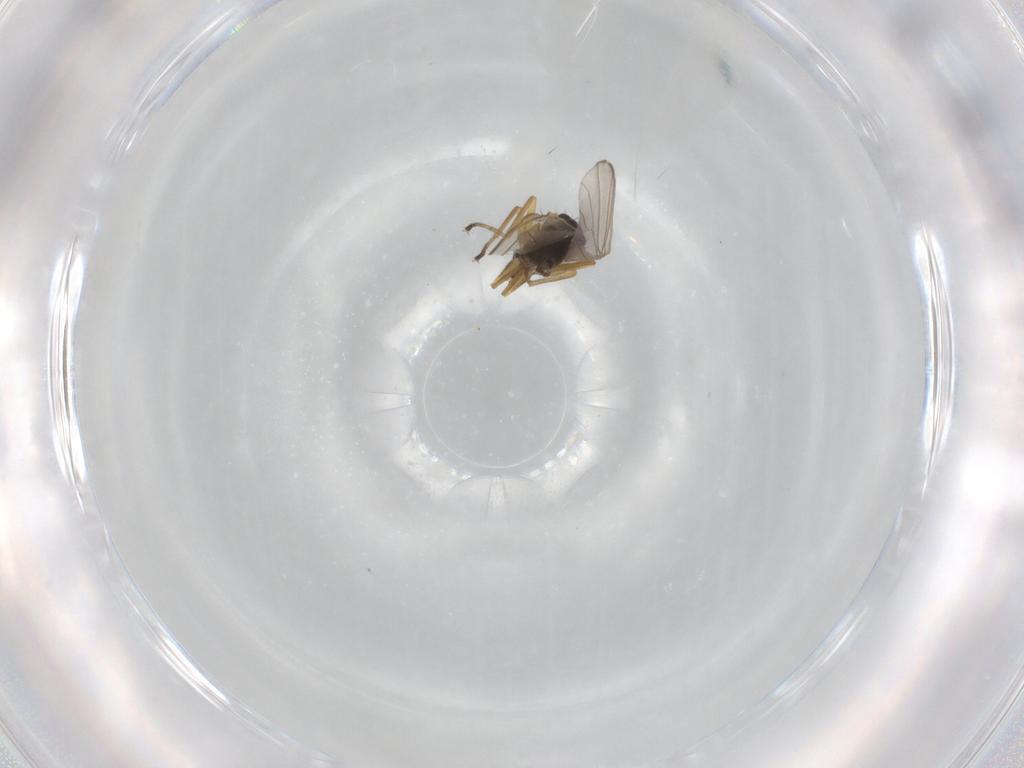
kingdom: Animalia
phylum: Arthropoda
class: Insecta
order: Diptera
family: Hybotidae
